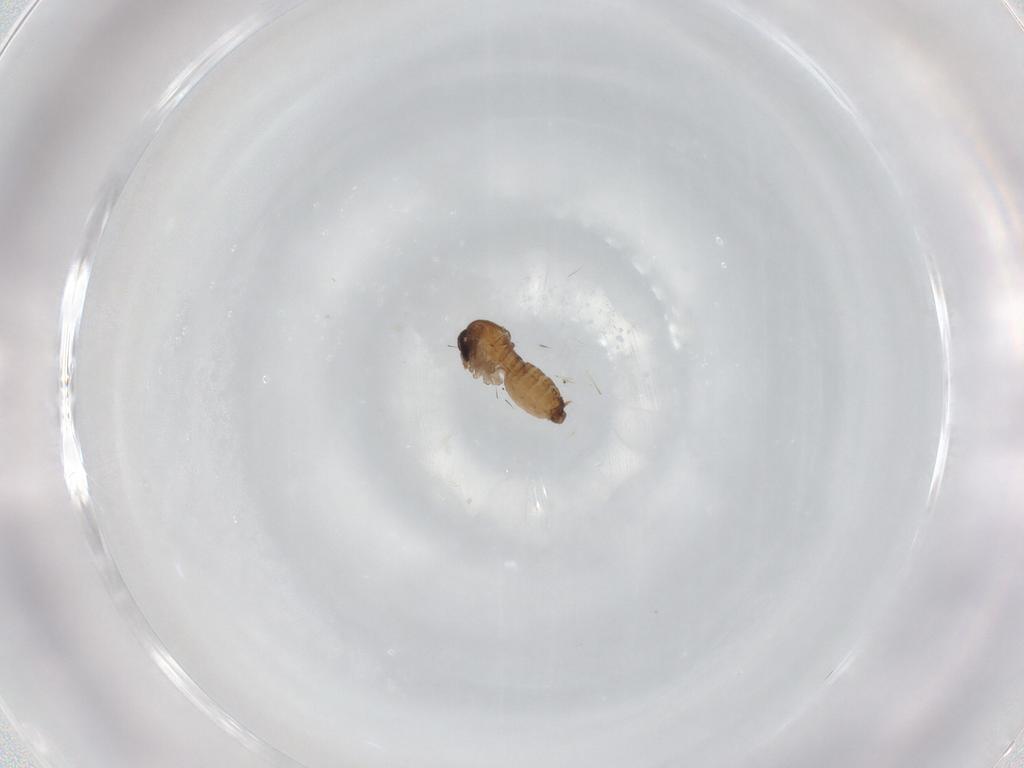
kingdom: Animalia
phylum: Arthropoda
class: Insecta
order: Diptera
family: Psychodidae
